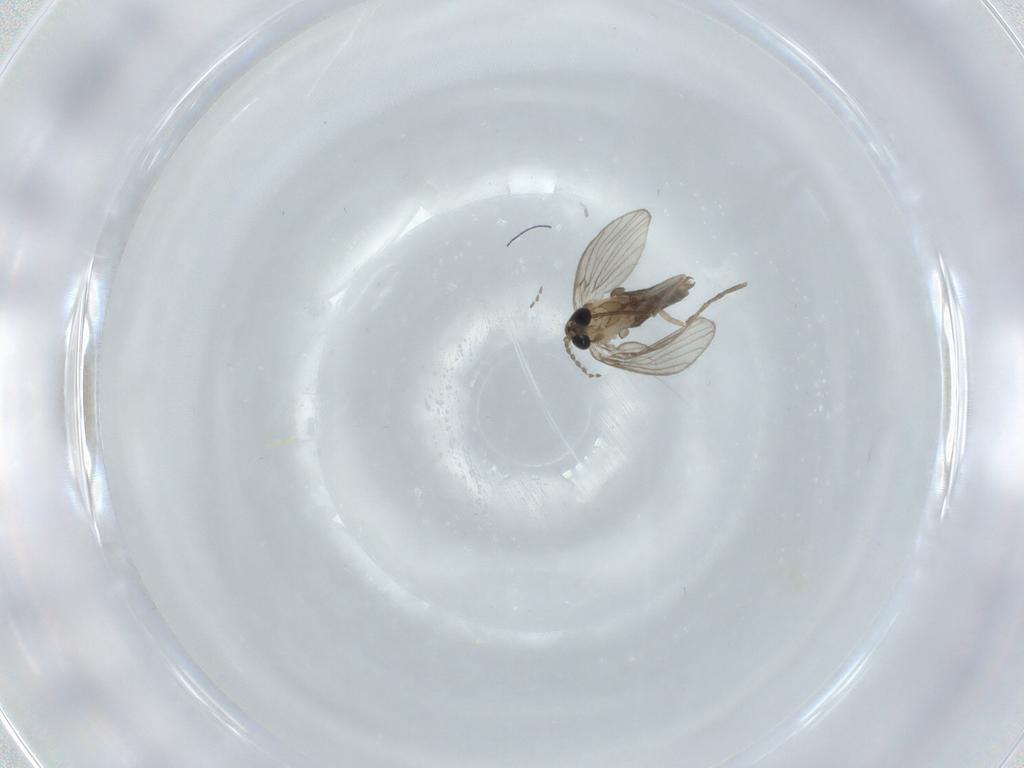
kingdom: Animalia
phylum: Arthropoda
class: Insecta
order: Diptera
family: Psychodidae
